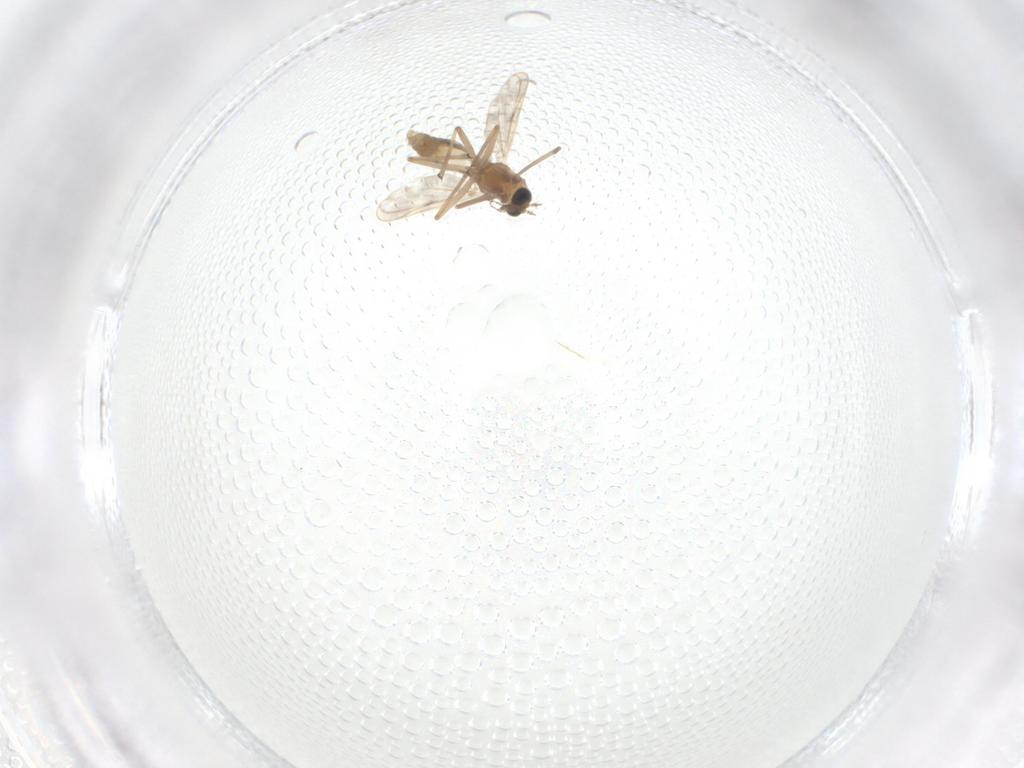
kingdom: Animalia
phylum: Arthropoda
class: Insecta
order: Diptera
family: Chironomidae
